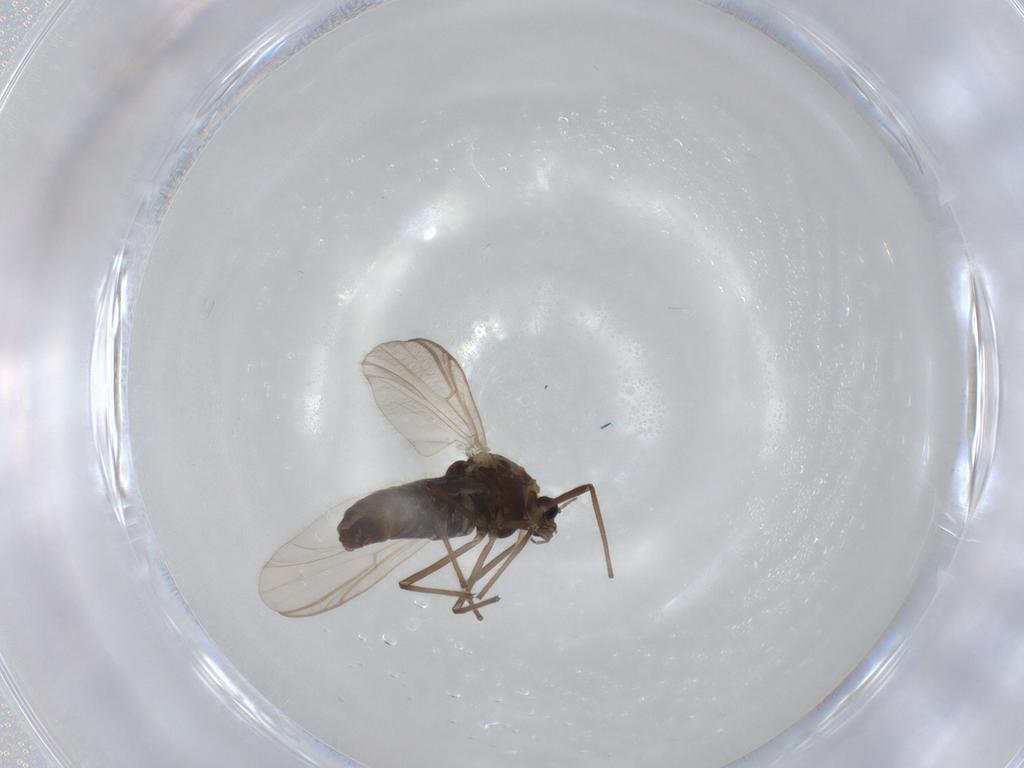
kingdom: Animalia
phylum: Arthropoda
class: Insecta
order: Diptera
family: Chironomidae
